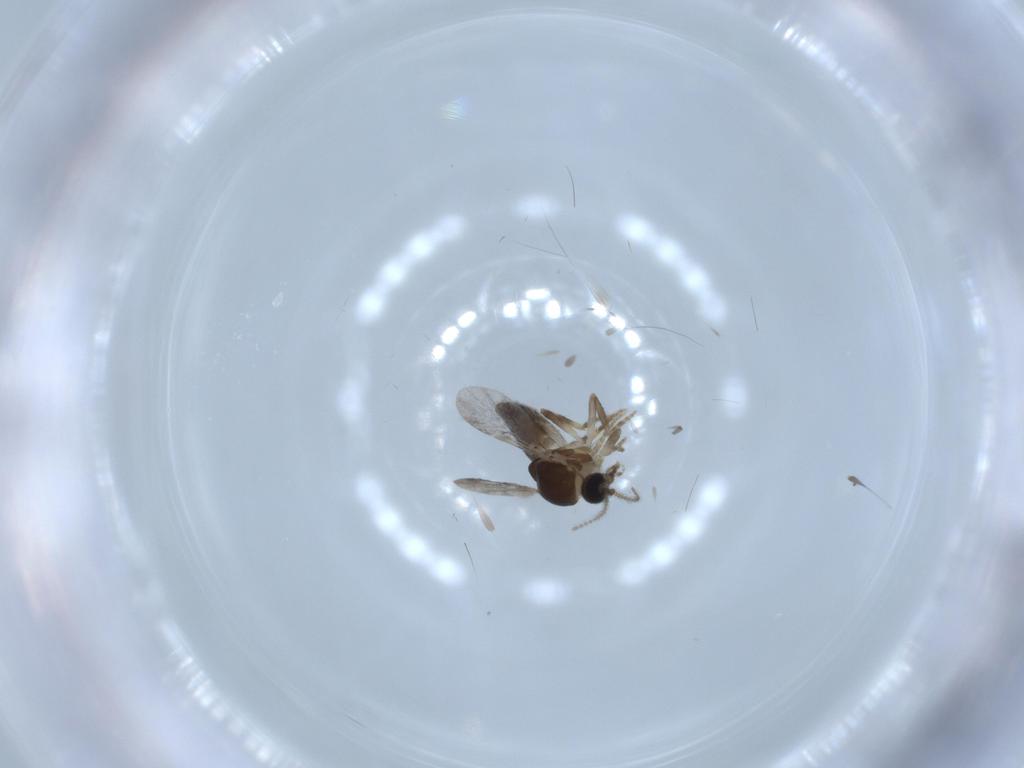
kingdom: Animalia
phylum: Arthropoda
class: Insecta
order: Diptera
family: Ceratopogonidae
